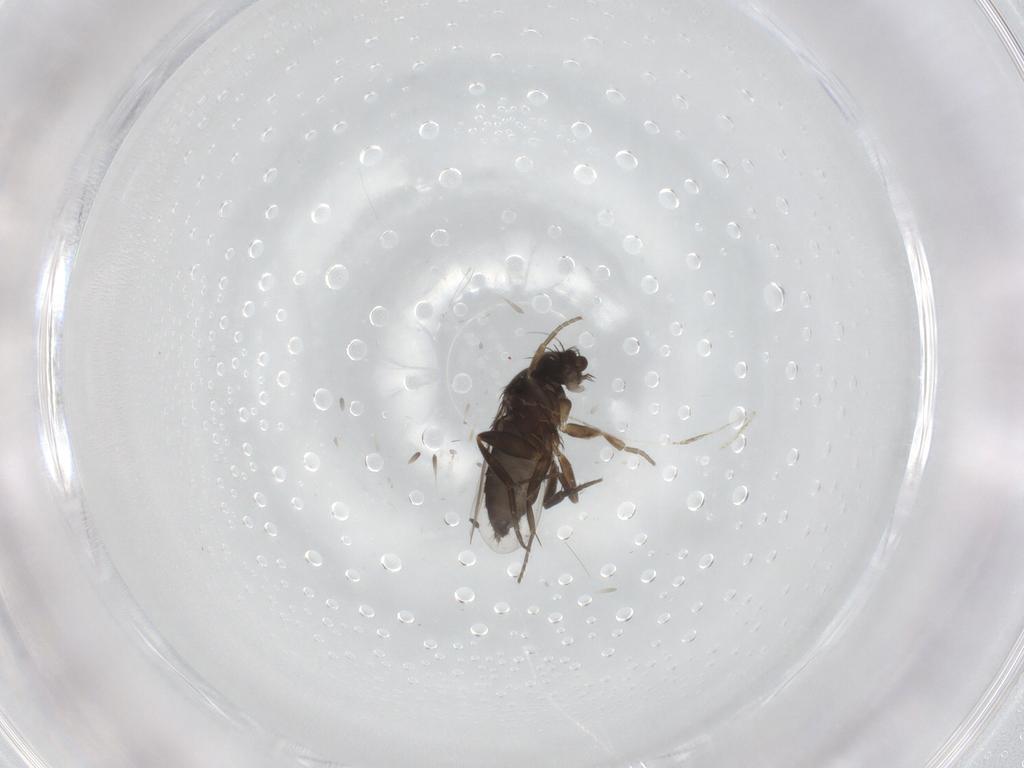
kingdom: Animalia
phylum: Arthropoda
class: Insecta
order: Diptera
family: Phoridae
